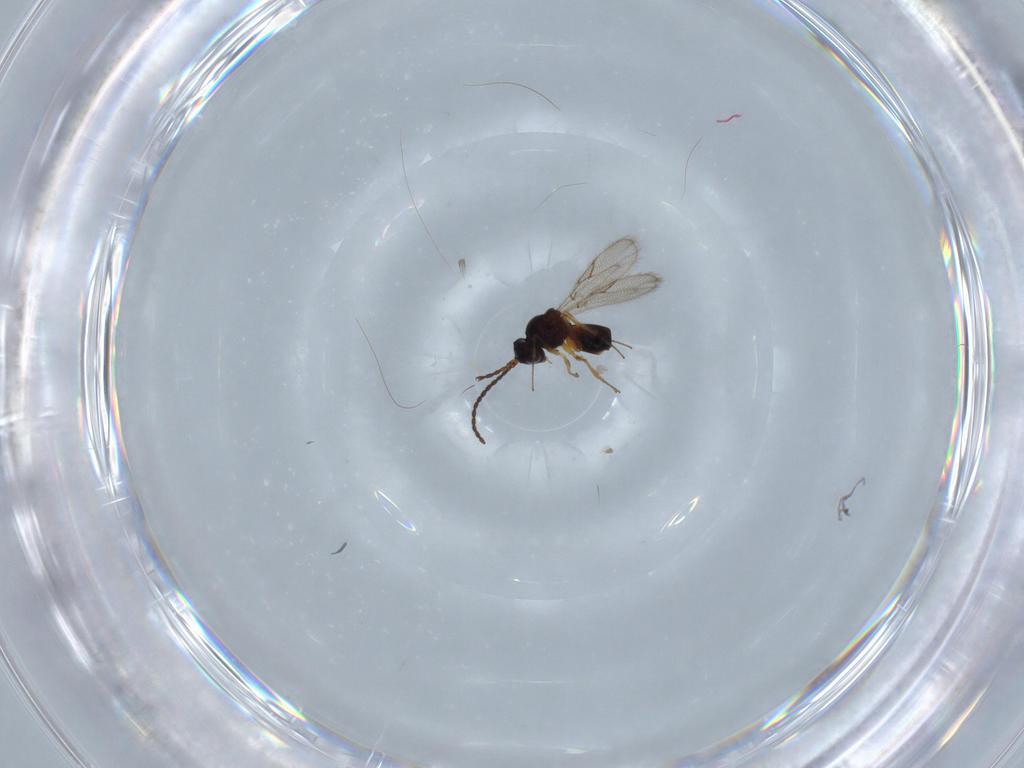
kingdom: Animalia
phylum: Arthropoda
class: Insecta
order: Hymenoptera
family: Figitidae
